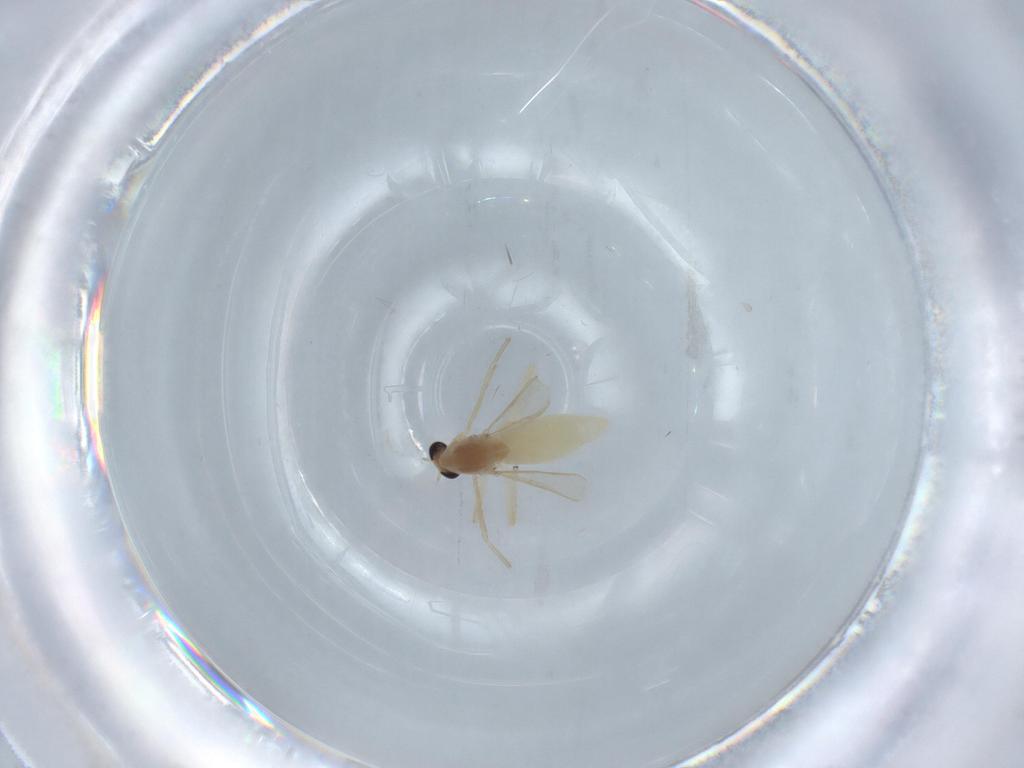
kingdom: Animalia
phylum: Arthropoda
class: Insecta
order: Diptera
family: Chironomidae
